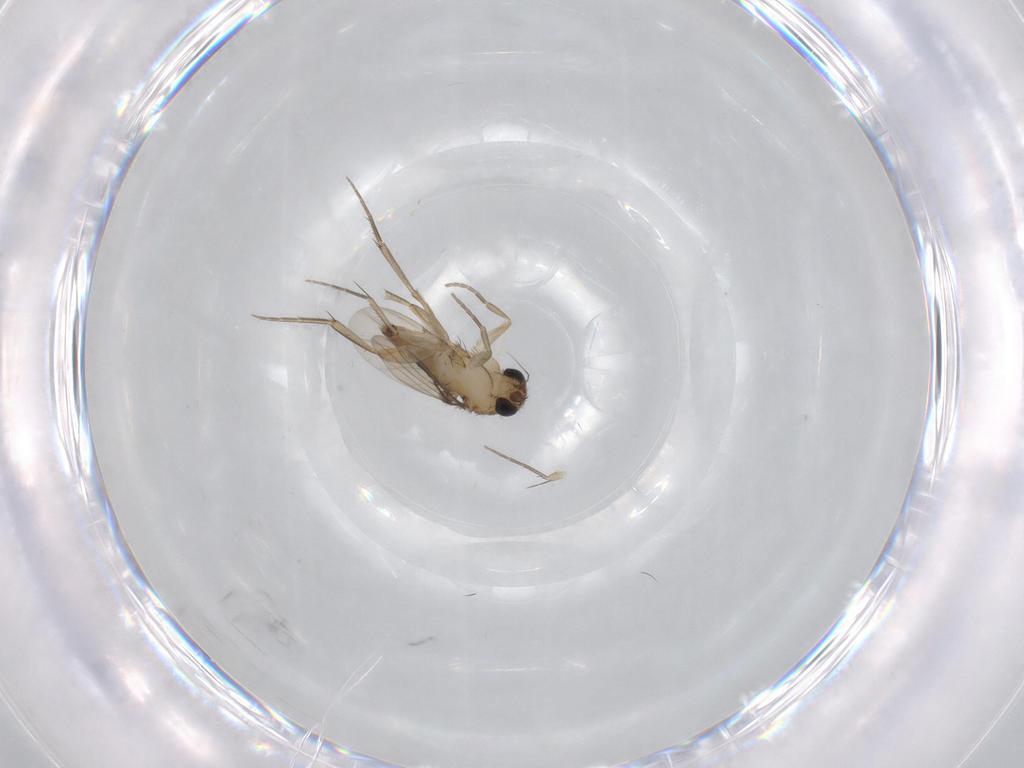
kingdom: Animalia
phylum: Arthropoda
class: Insecta
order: Diptera
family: Phoridae
